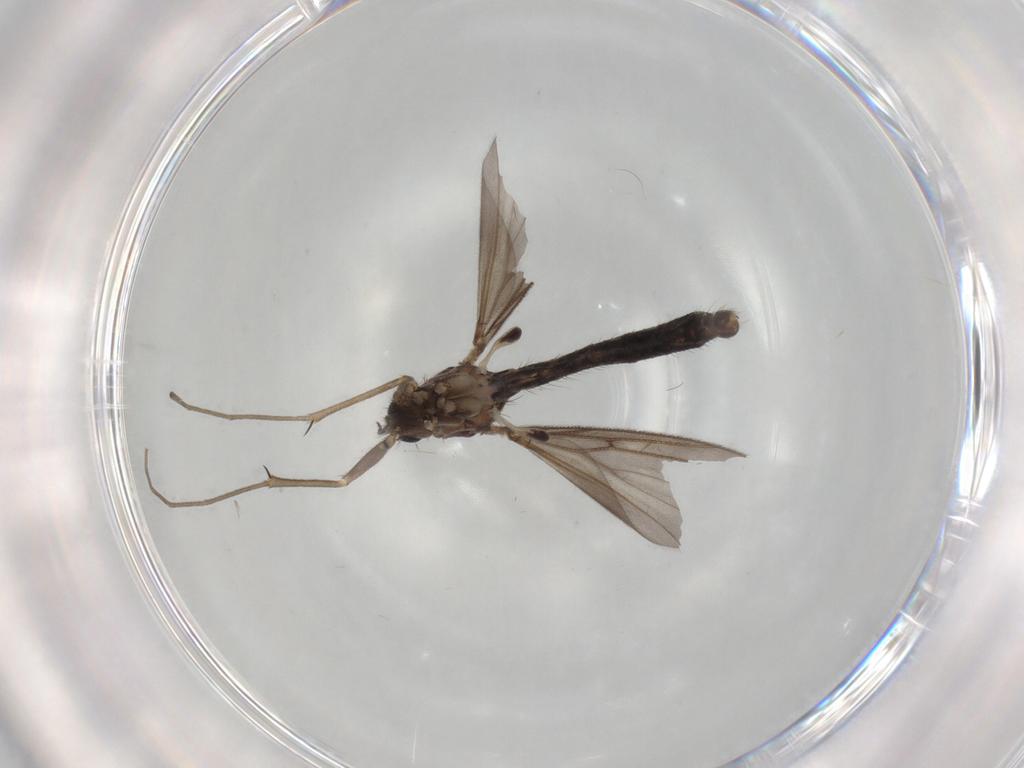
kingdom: Animalia
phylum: Arthropoda
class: Insecta
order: Diptera
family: Mycetophilidae
